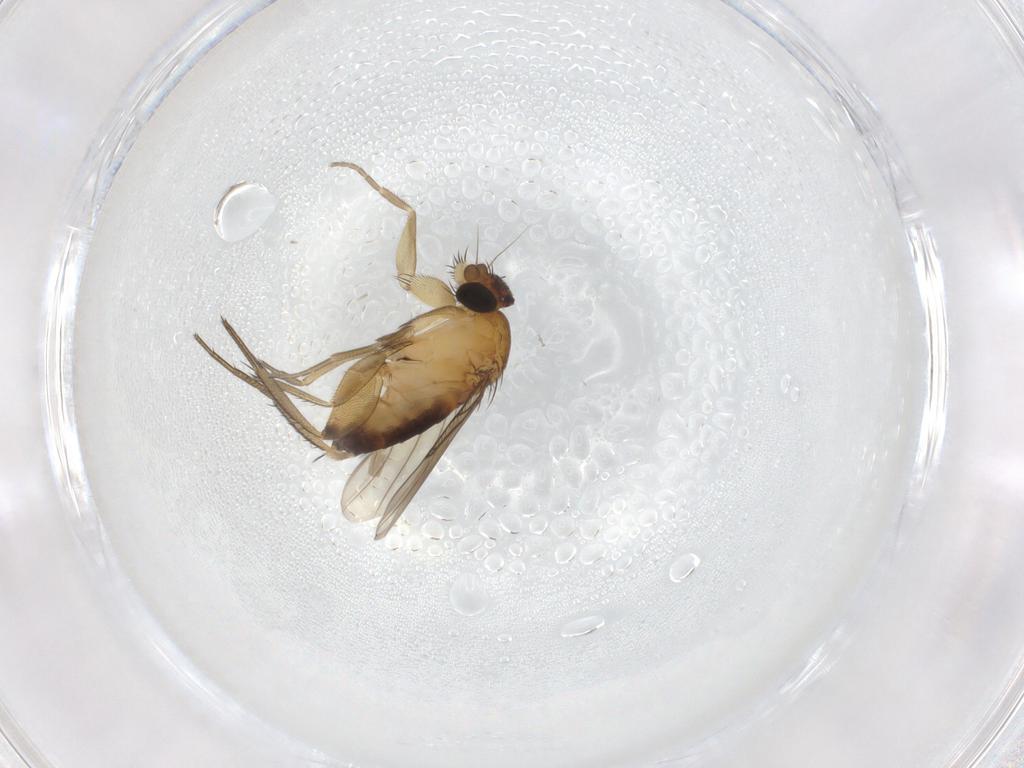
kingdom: Animalia
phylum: Arthropoda
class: Insecta
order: Diptera
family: Phoridae
